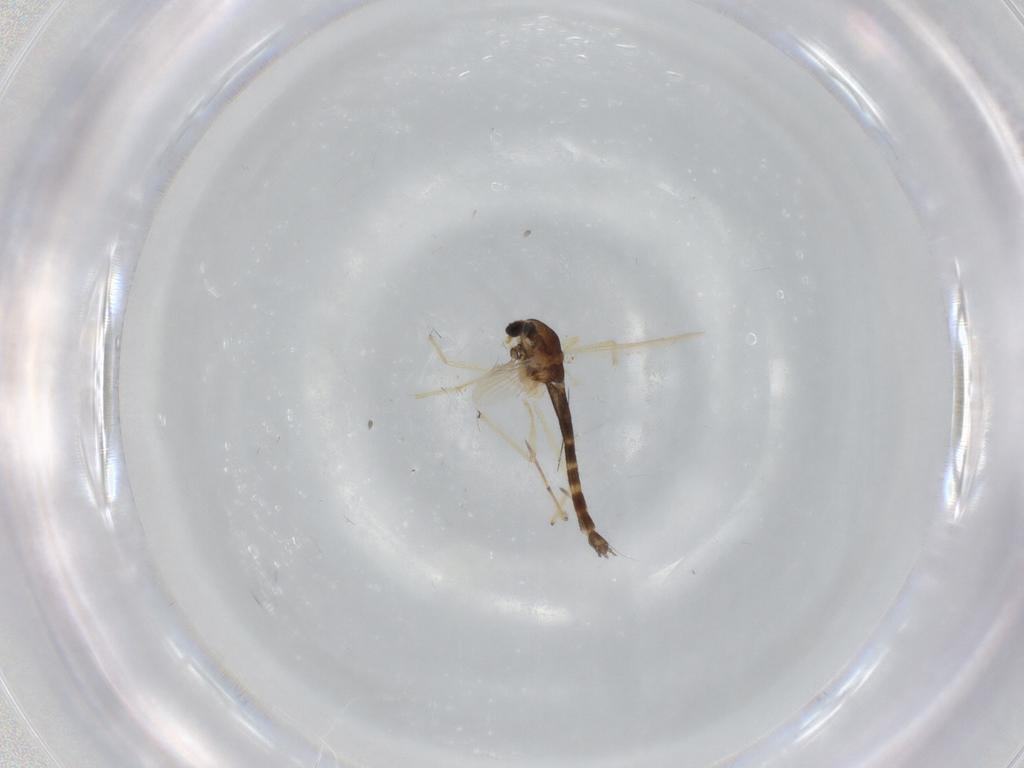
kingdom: Animalia
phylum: Arthropoda
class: Insecta
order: Diptera
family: Chironomidae
